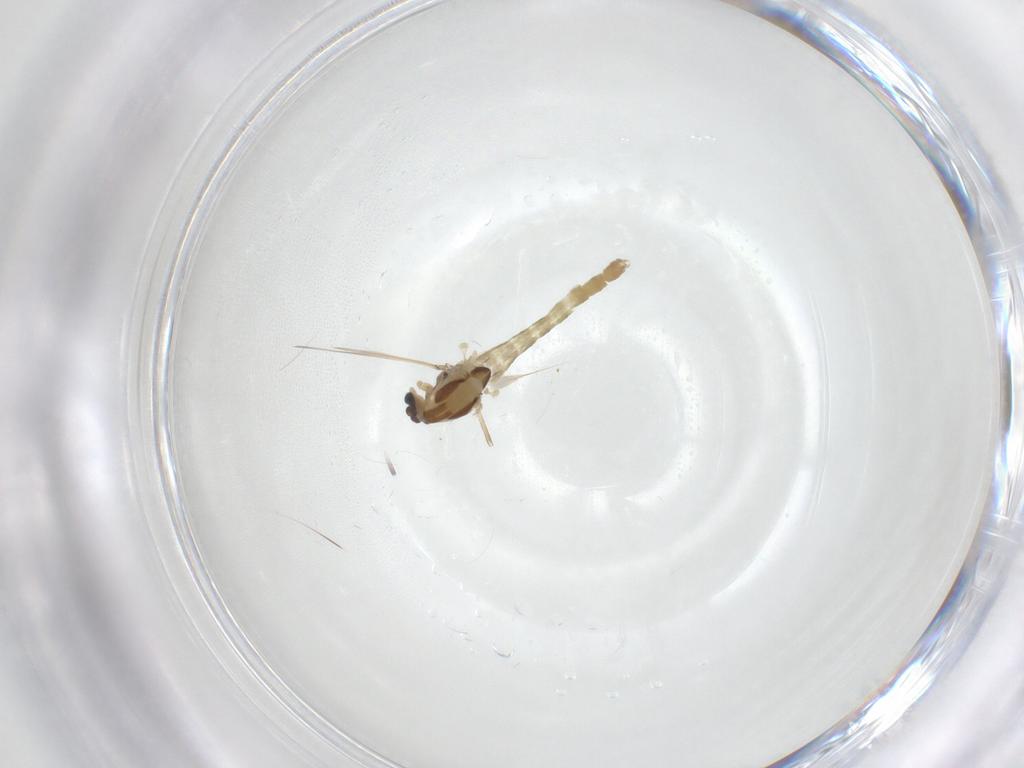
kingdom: Animalia
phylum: Arthropoda
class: Insecta
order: Diptera
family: Chironomidae
